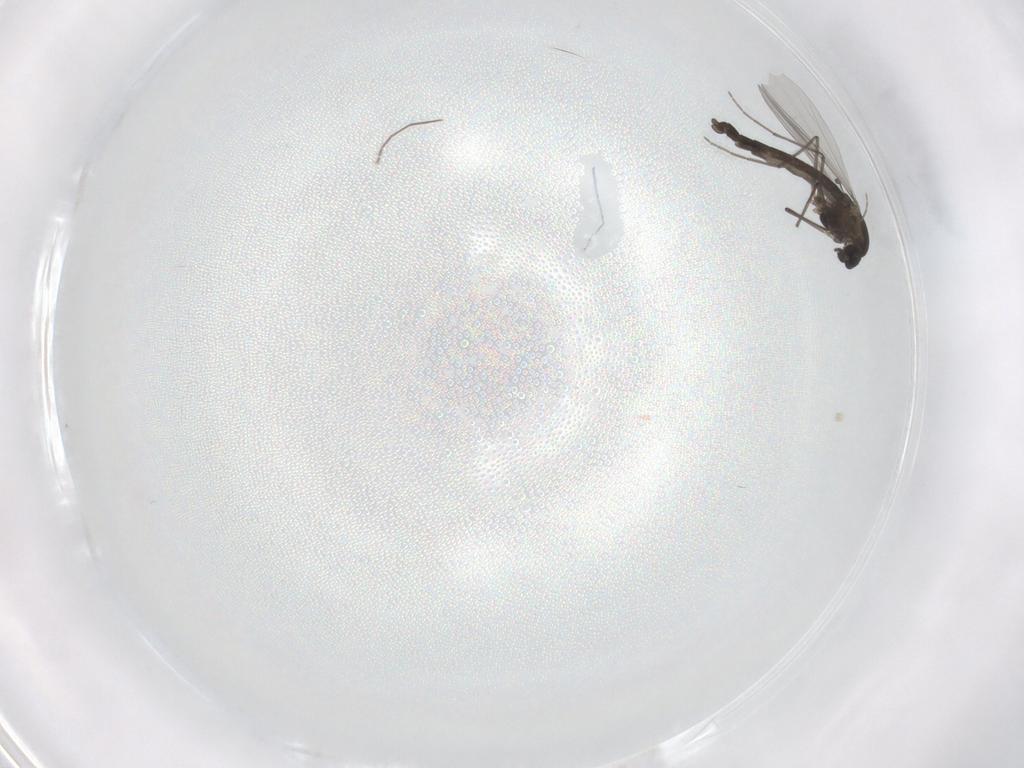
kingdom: Animalia
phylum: Arthropoda
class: Insecta
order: Diptera
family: Chironomidae
